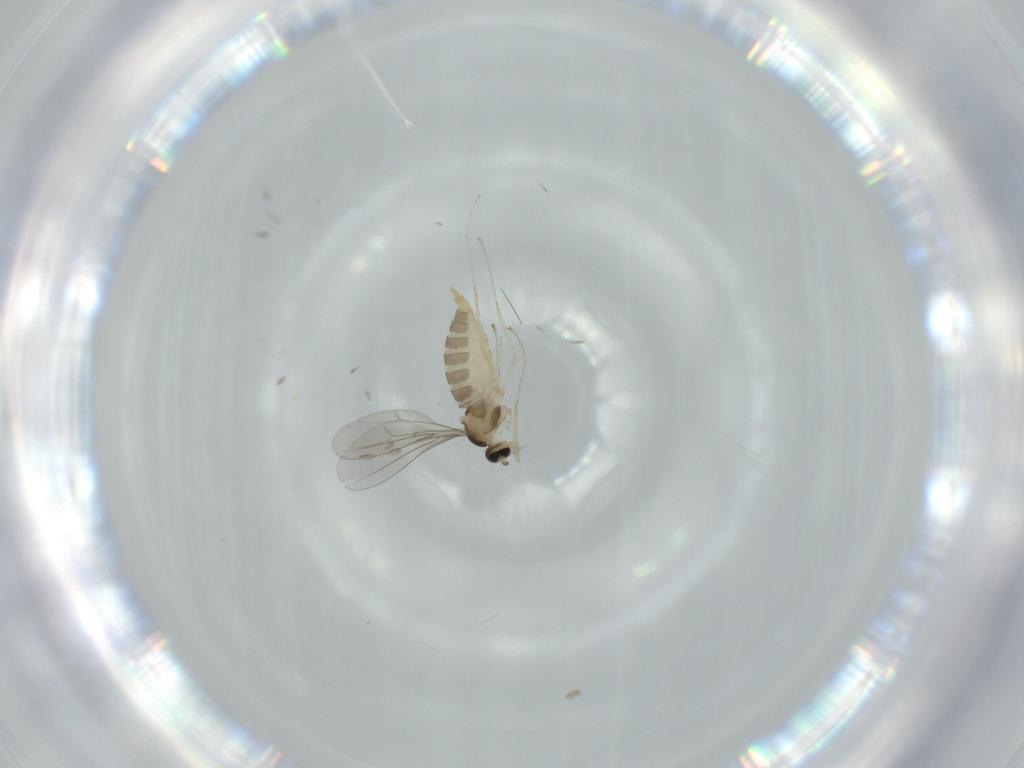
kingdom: Animalia
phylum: Arthropoda
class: Insecta
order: Diptera
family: Cecidomyiidae
